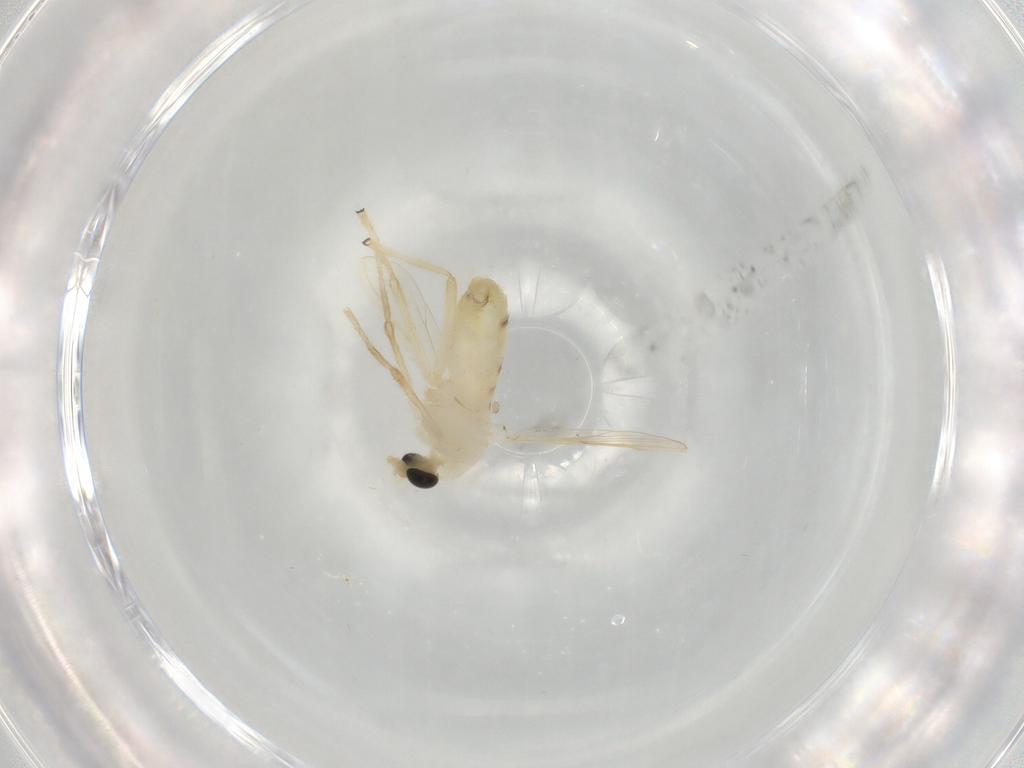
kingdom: Animalia
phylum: Arthropoda
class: Insecta
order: Diptera
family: Chironomidae
